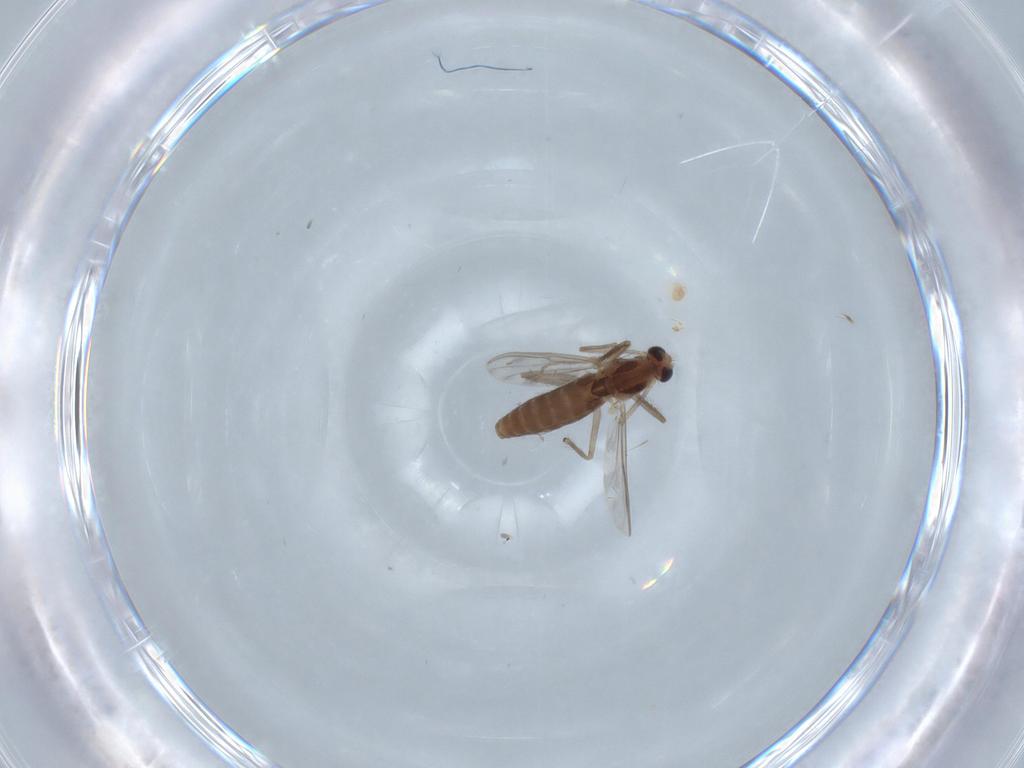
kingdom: Animalia
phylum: Arthropoda
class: Insecta
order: Diptera
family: Chironomidae
